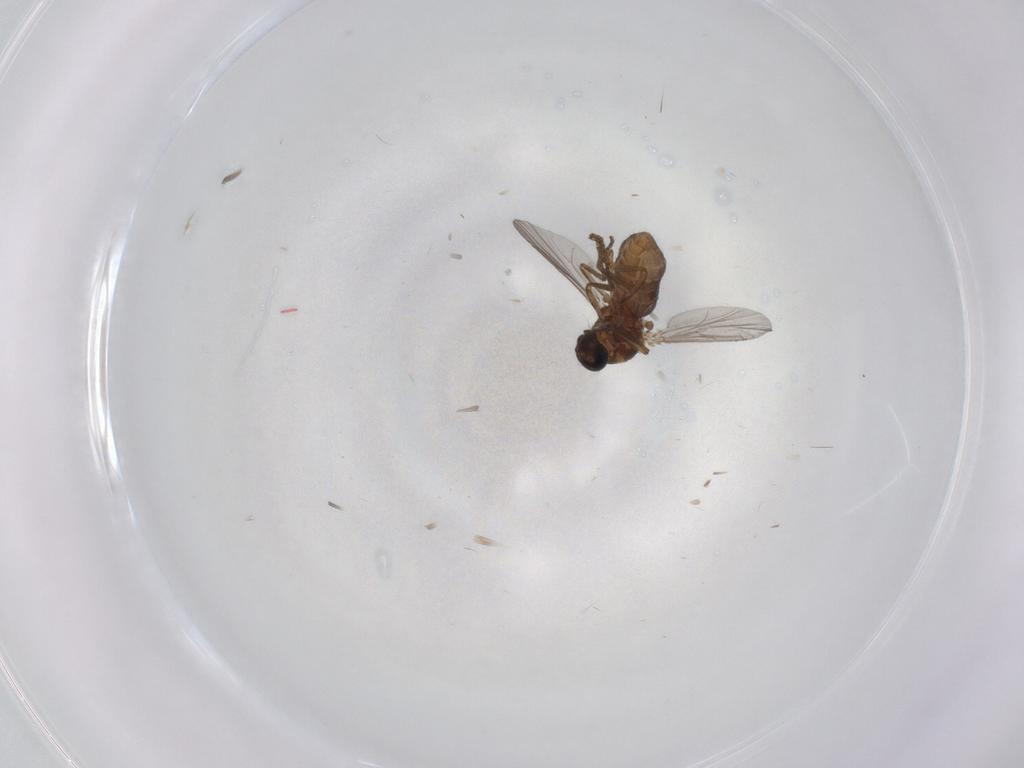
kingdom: Animalia
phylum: Arthropoda
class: Insecta
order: Diptera
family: Ceratopogonidae
